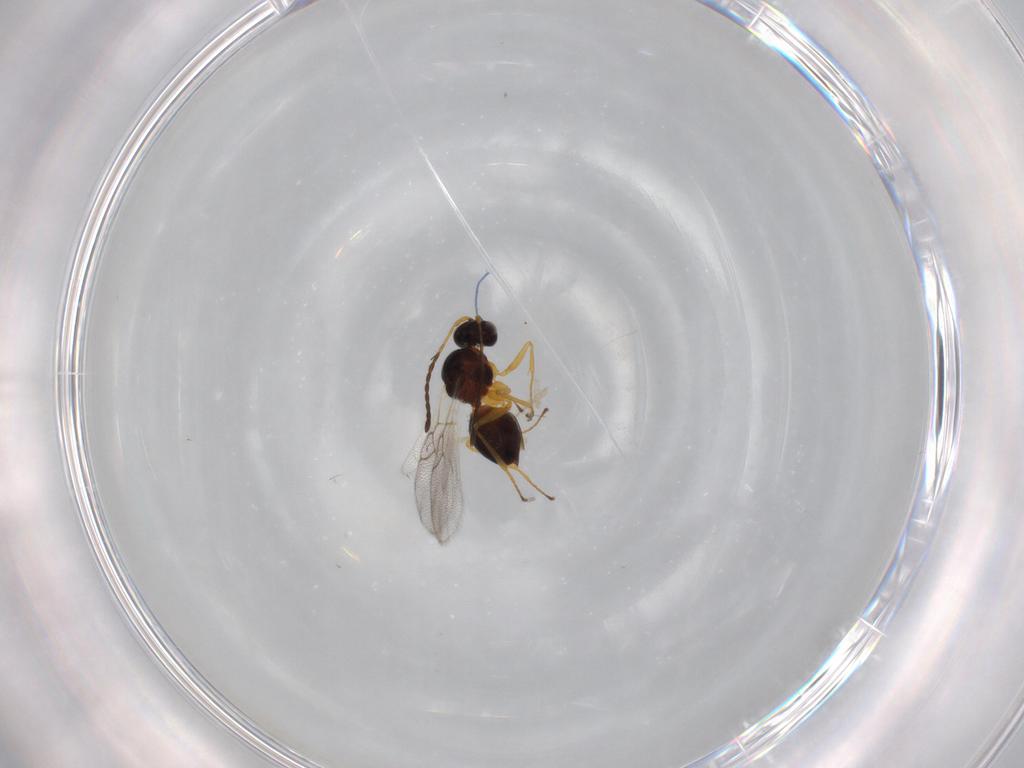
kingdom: Animalia
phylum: Arthropoda
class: Insecta
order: Hymenoptera
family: Figitidae
